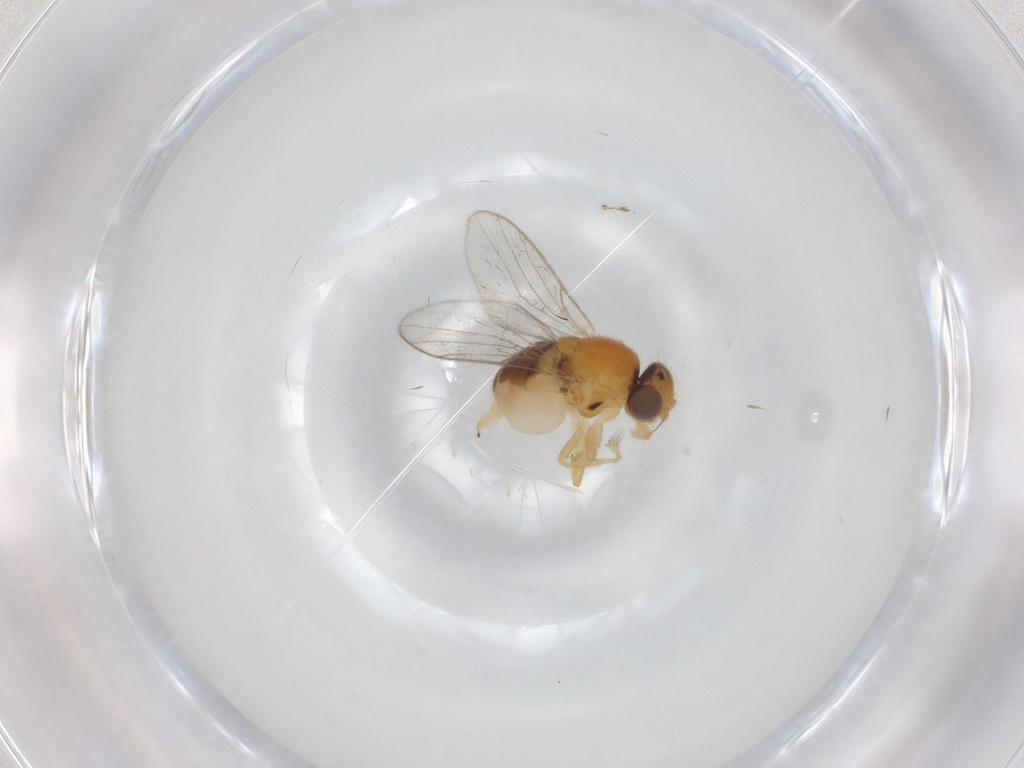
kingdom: Animalia
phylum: Arthropoda
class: Insecta
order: Diptera
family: Chloropidae
